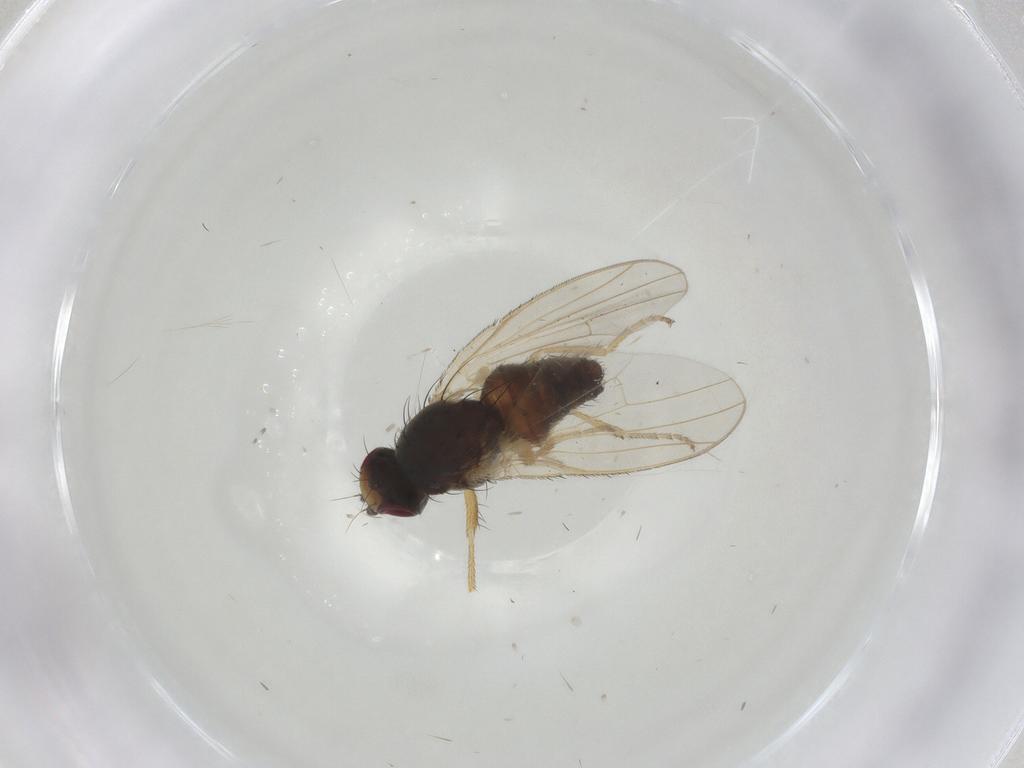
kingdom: Animalia
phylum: Arthropoda
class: Insecta
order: Diptera
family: Heleomyzidae
